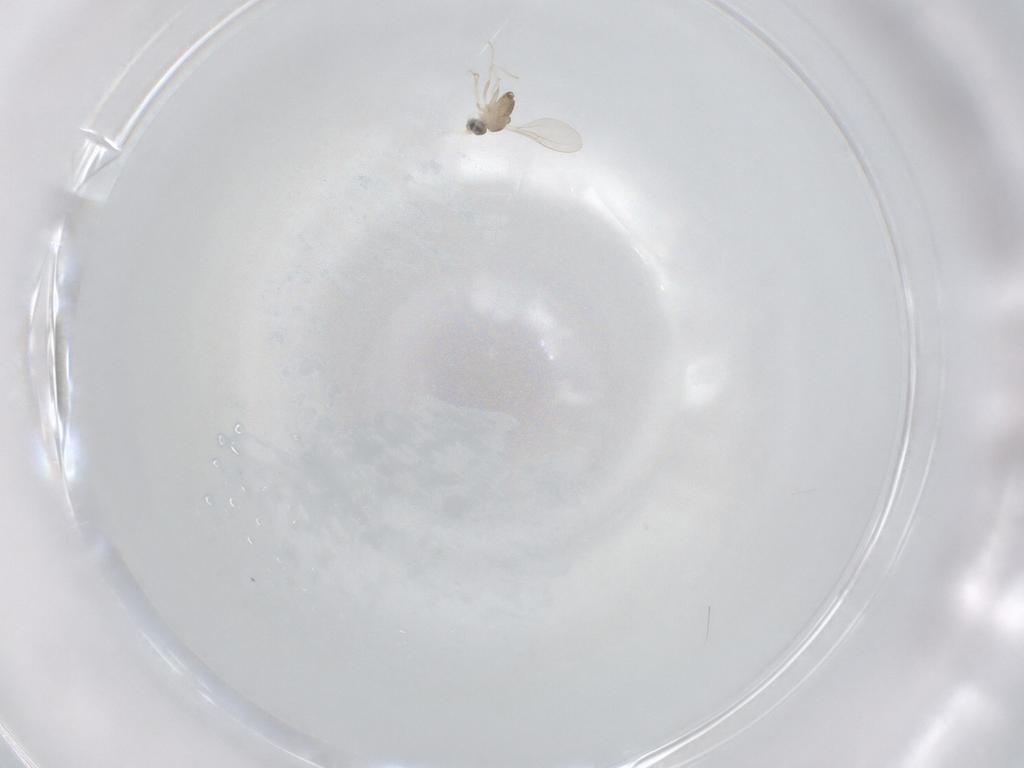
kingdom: Animalia
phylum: Arthropoda
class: Insecta
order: Diptera
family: Cecidomyiidae
